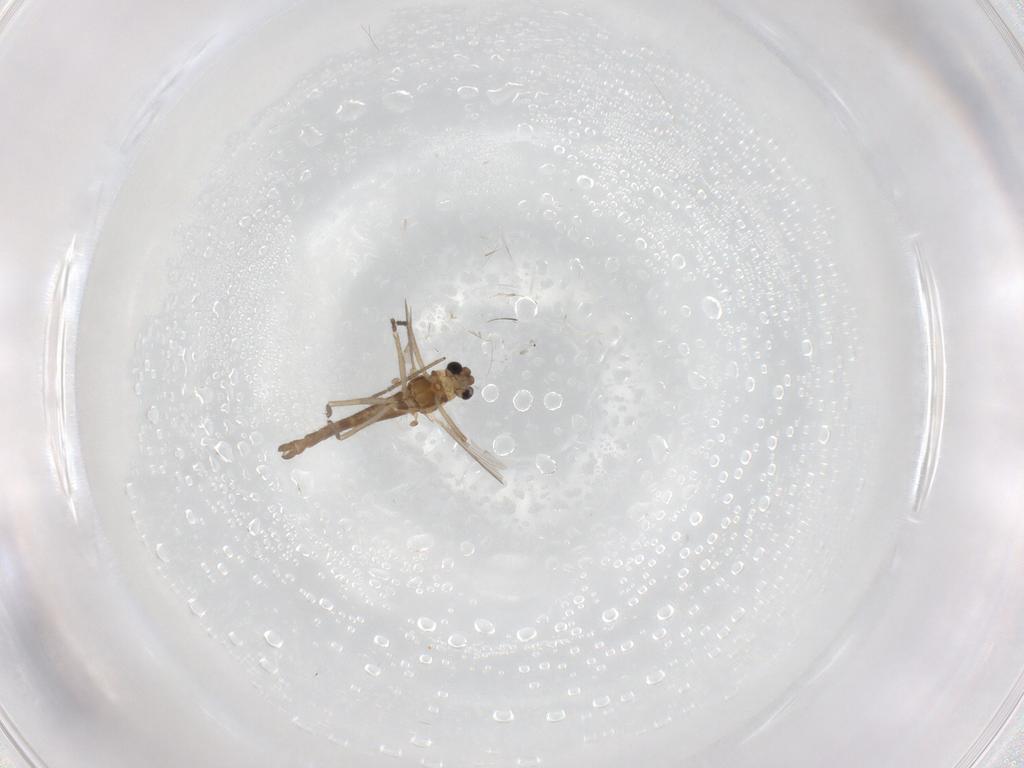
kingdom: Animalia
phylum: Arthropoda
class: Insecta
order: Diptera
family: Chironomidae
